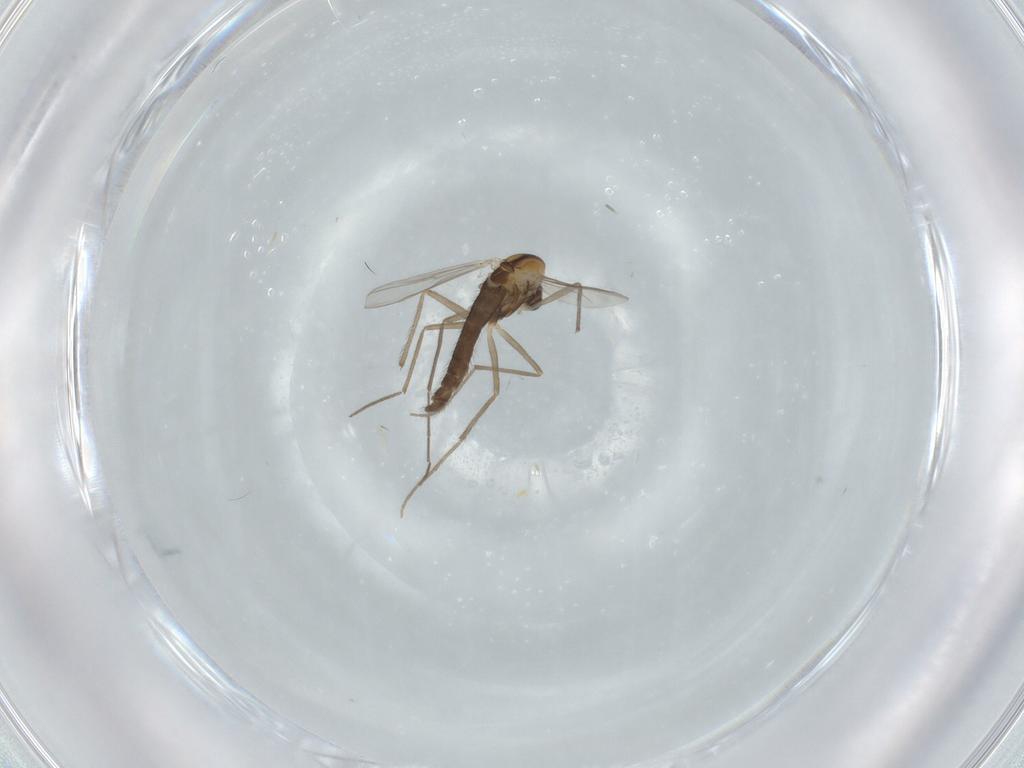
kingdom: Animalia
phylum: Arthropoda
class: Insecta
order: Diptera
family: Chironomidae
